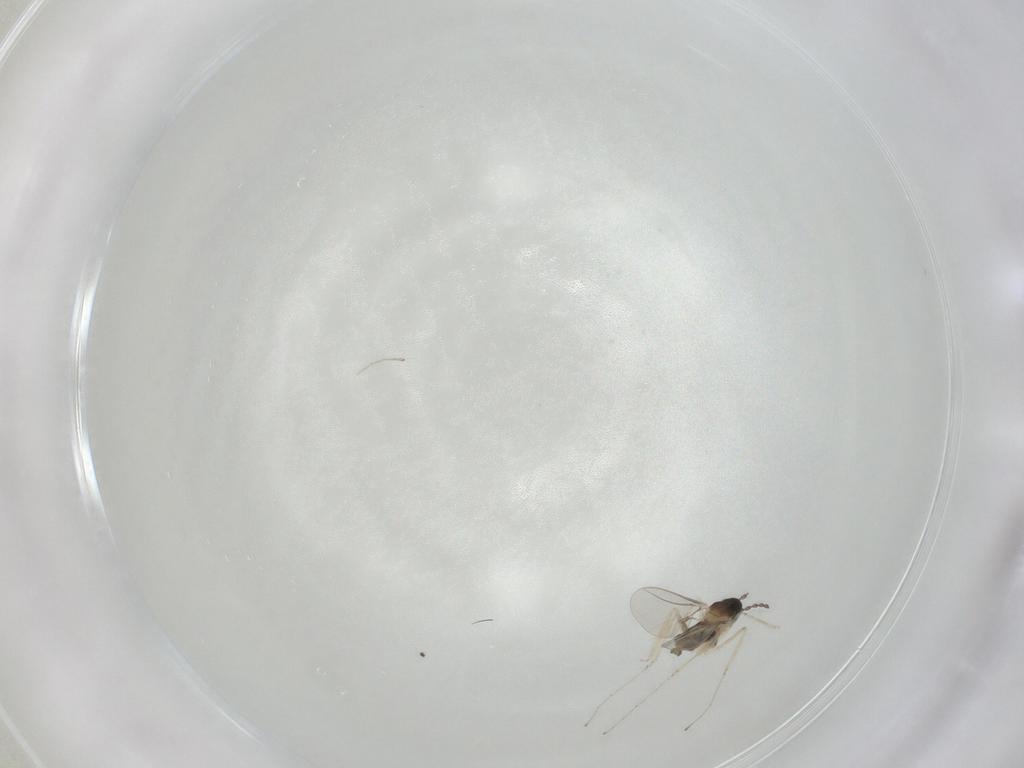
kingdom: Animalia
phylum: Arthropoda
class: Insecta
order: Diptera
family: Cecidomyiidae
